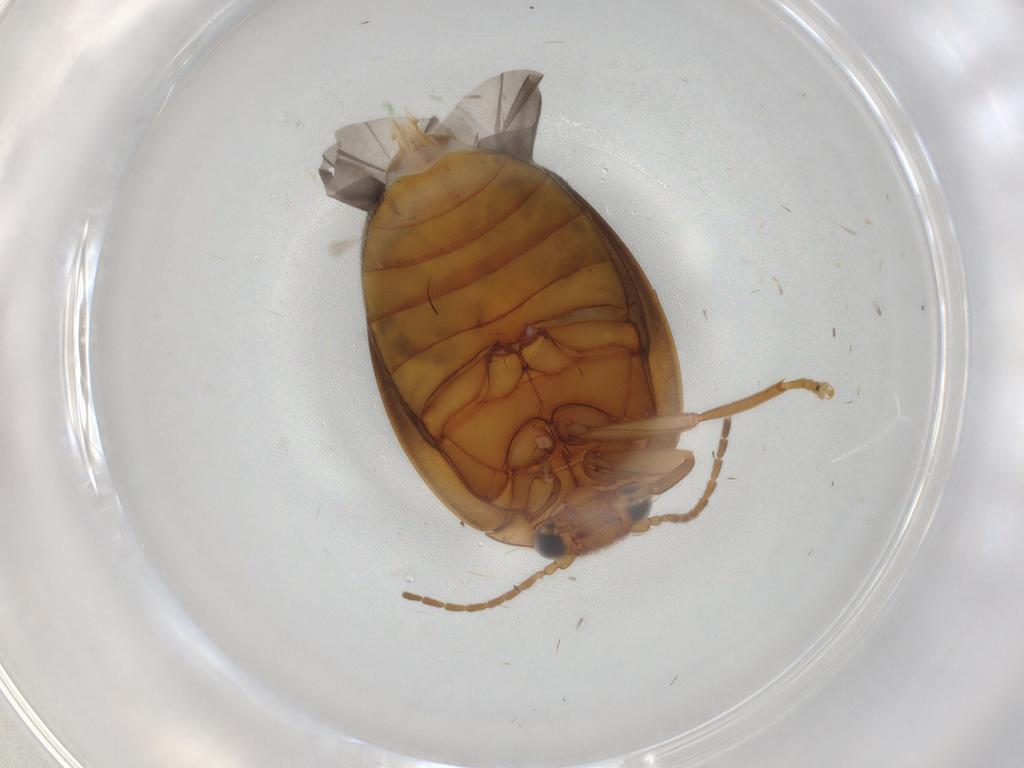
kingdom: Animalia
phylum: Arthropoda
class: Insecta
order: Coleoptera
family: Scirtidae
